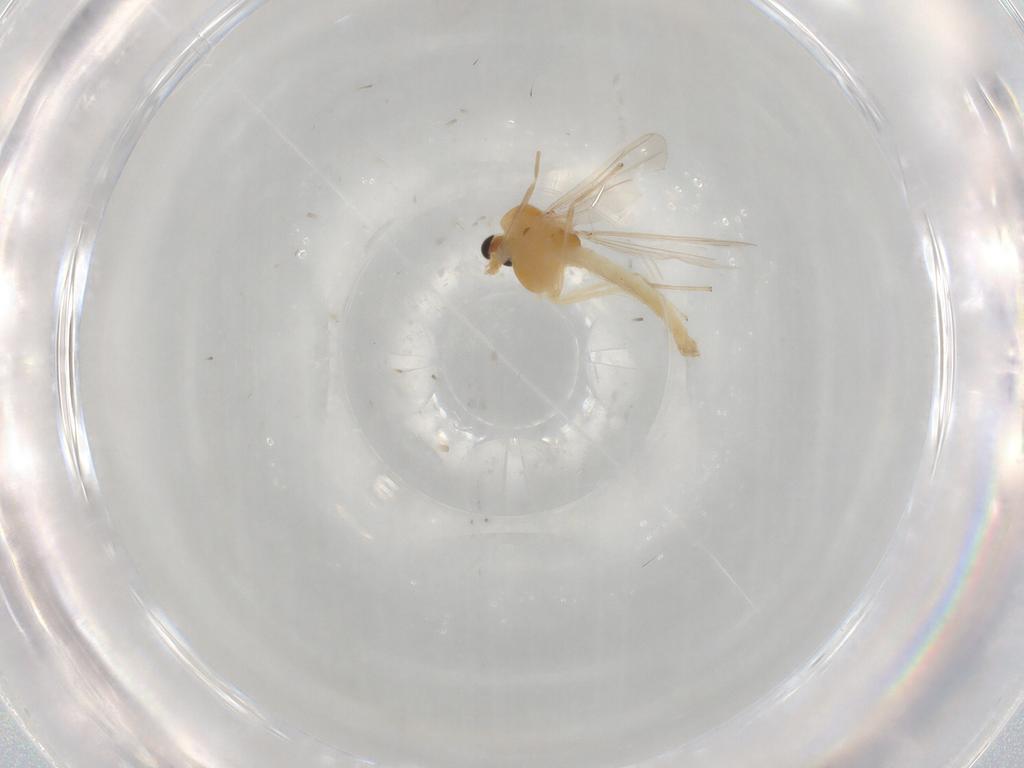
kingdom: Animalia
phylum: Arthropoda
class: Insecta
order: Diptera
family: Chironomidae
